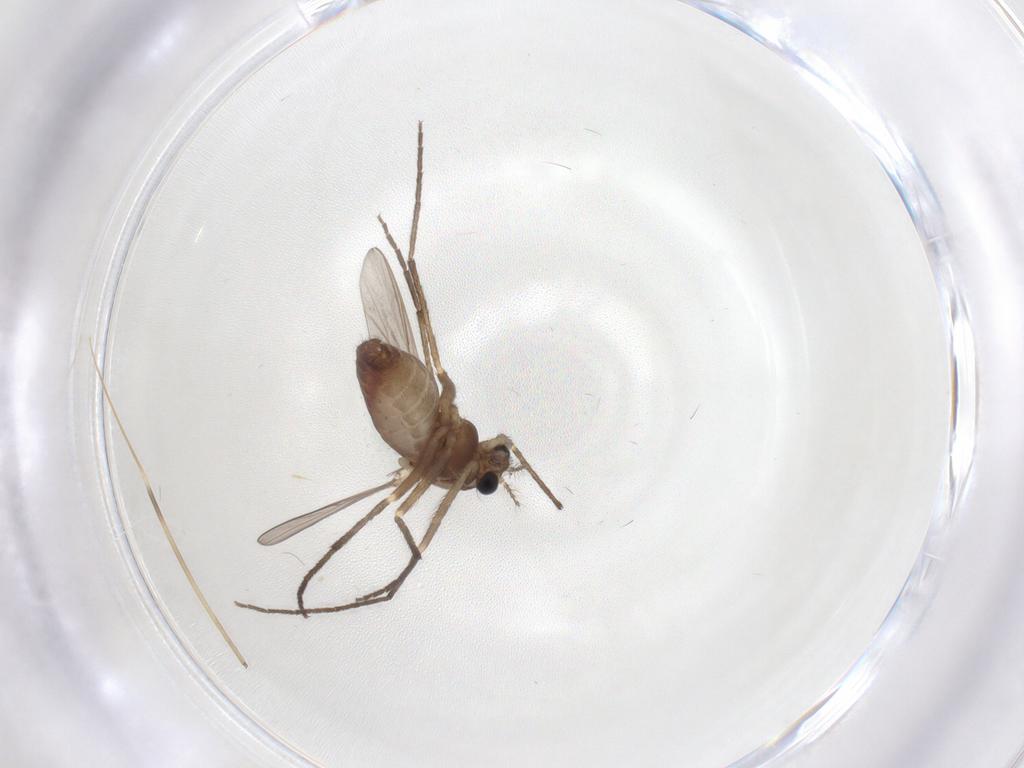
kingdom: Animalia
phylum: Arthropoda
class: Insecta
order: Diptera
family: Chironomidae
